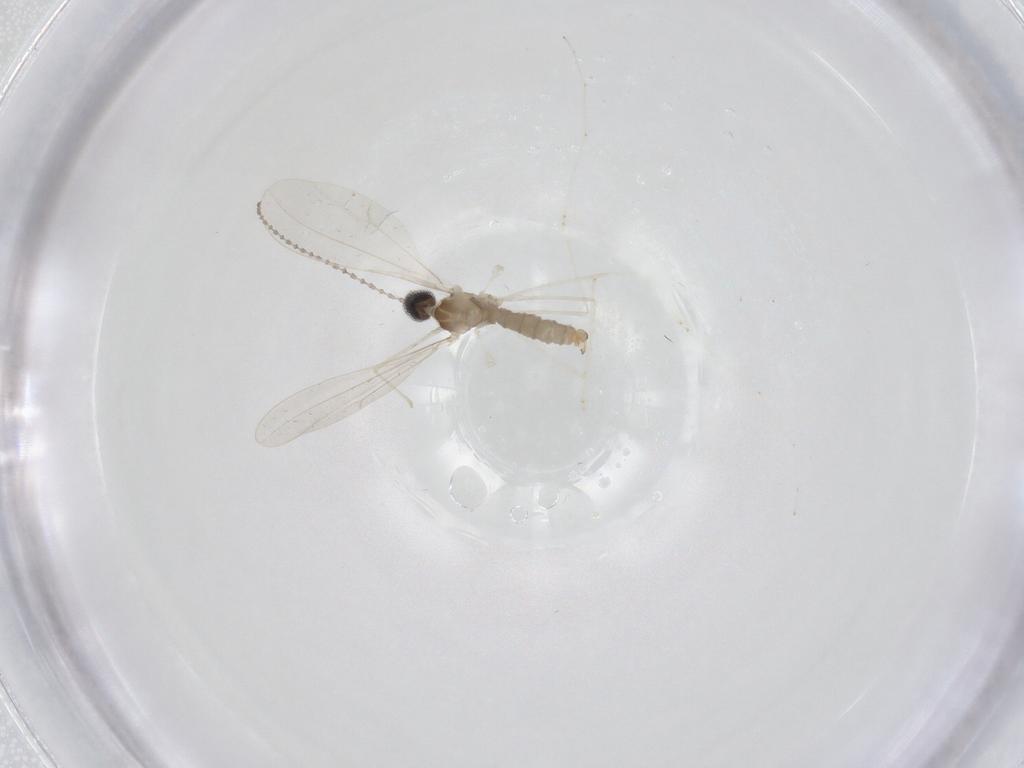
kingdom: Animalia
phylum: Arthropoda
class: Insecta
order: Diptera
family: Cecidomyiidae
